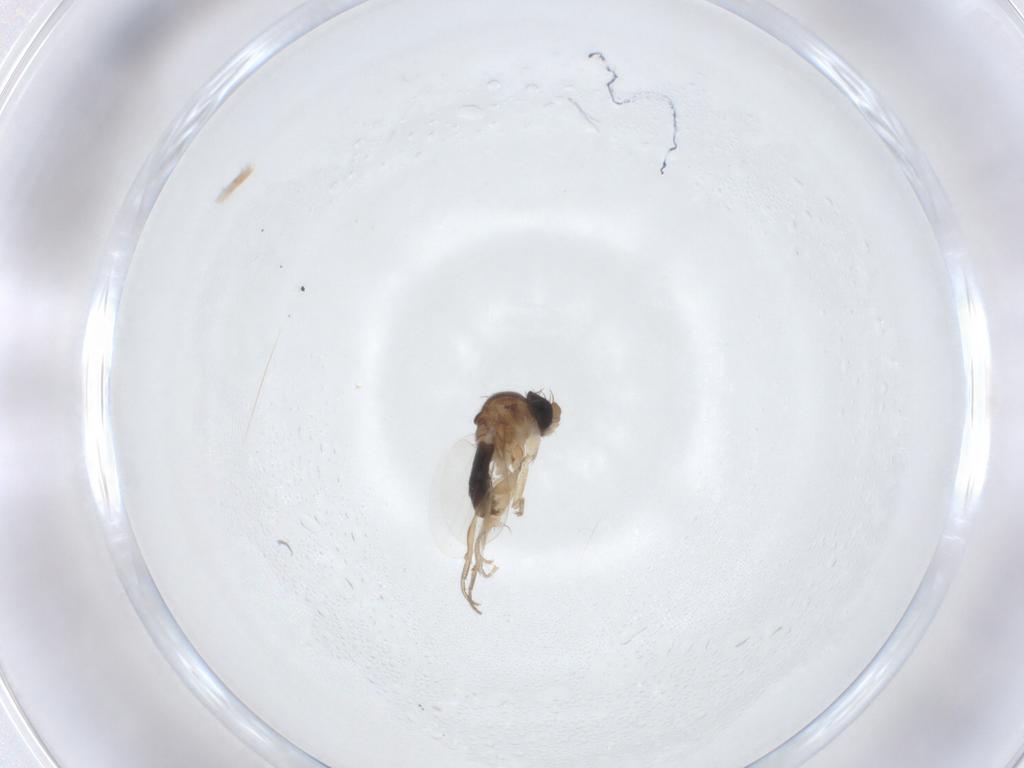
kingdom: Animalia
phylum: Arthropoda
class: Insecta
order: Diptera
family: Phoridae
